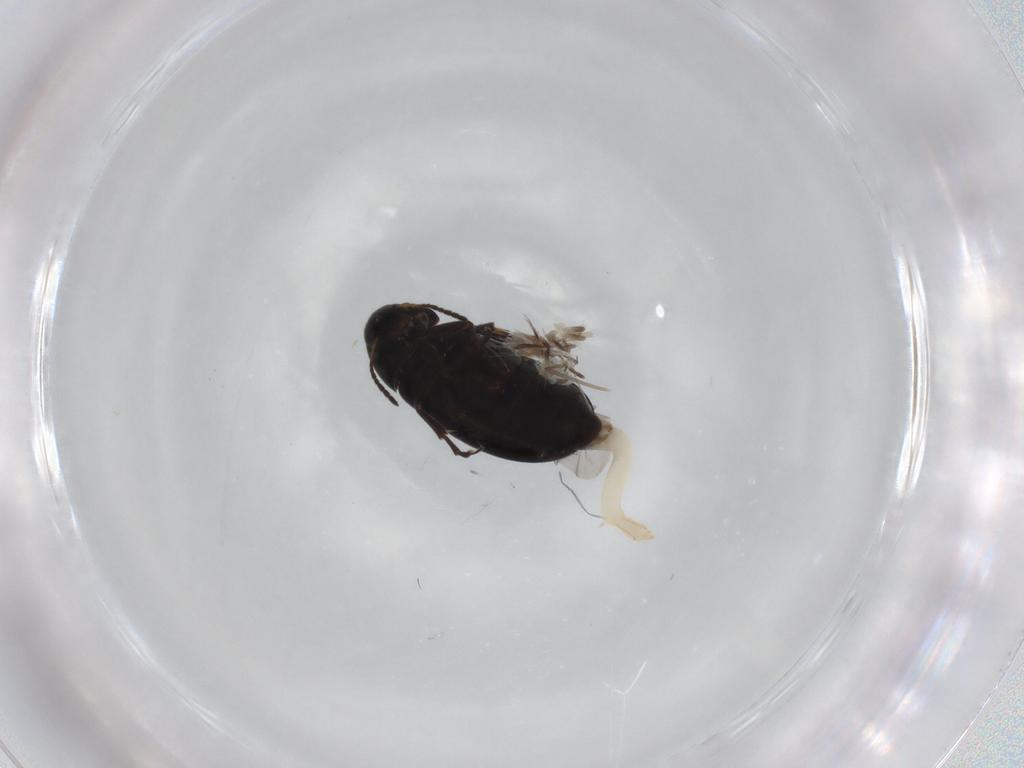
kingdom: Animalia
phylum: Arthropoda
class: Insecta
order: Coleoptera
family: Scraptiidae
